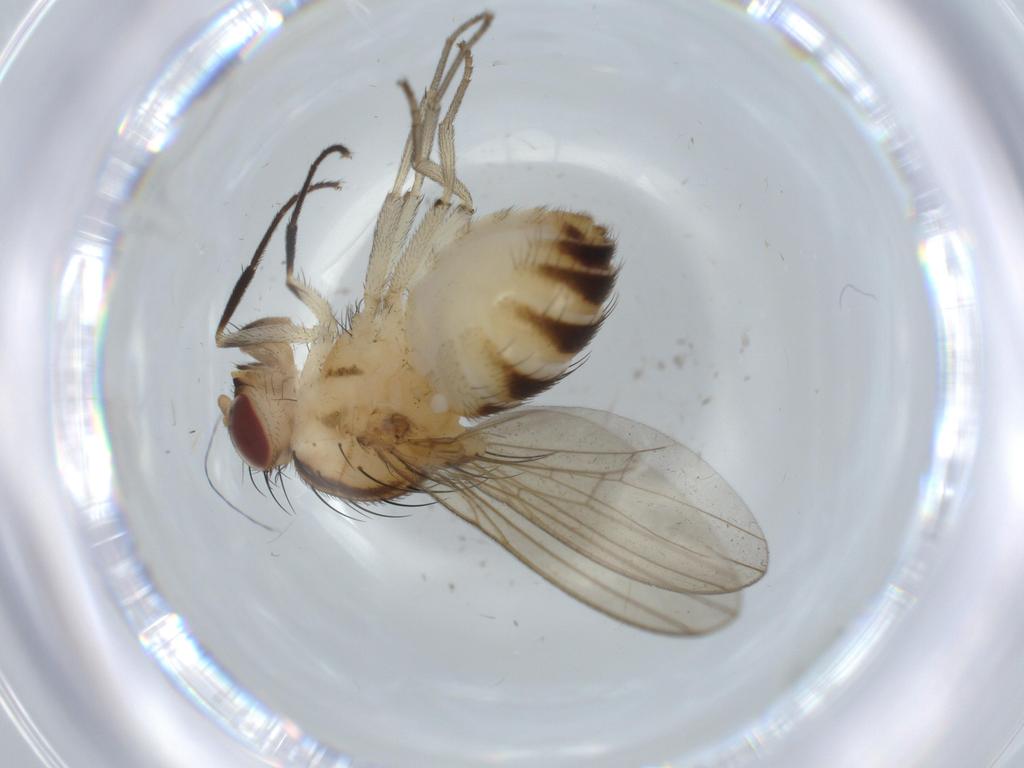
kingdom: Animalia
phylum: Arthropoda
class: Insecta
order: Diptera
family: Lauxaniidae
